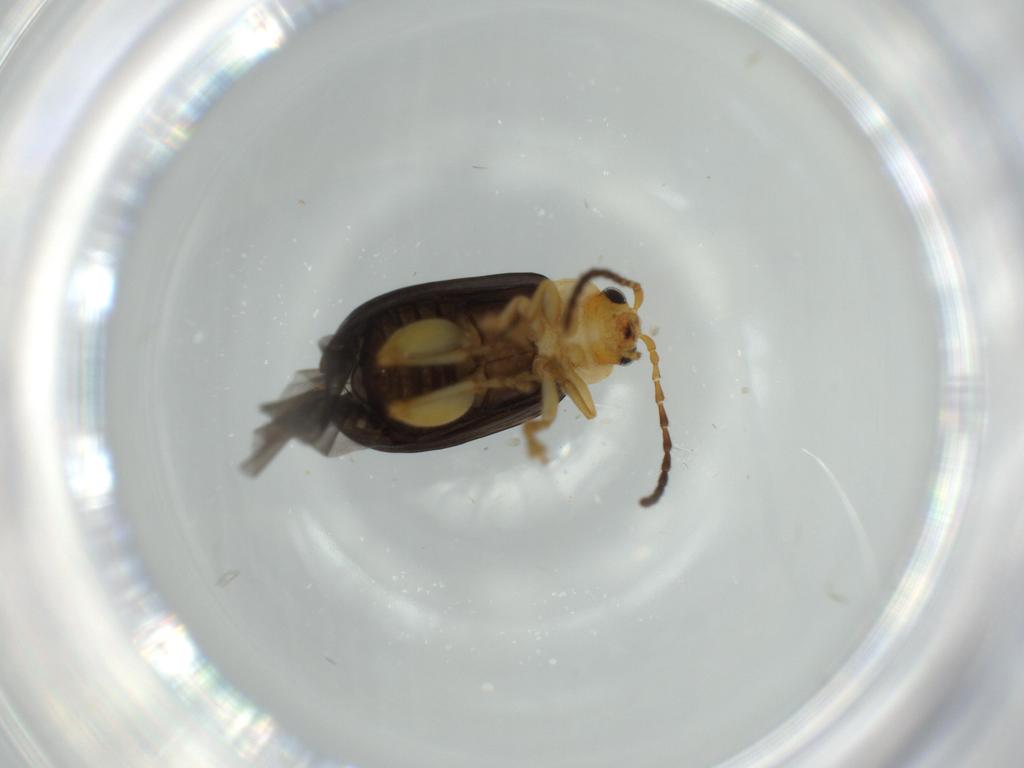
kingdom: Animalia
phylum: Arthropoda
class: Insecta
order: Coleoptera
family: Chrysomelidae
